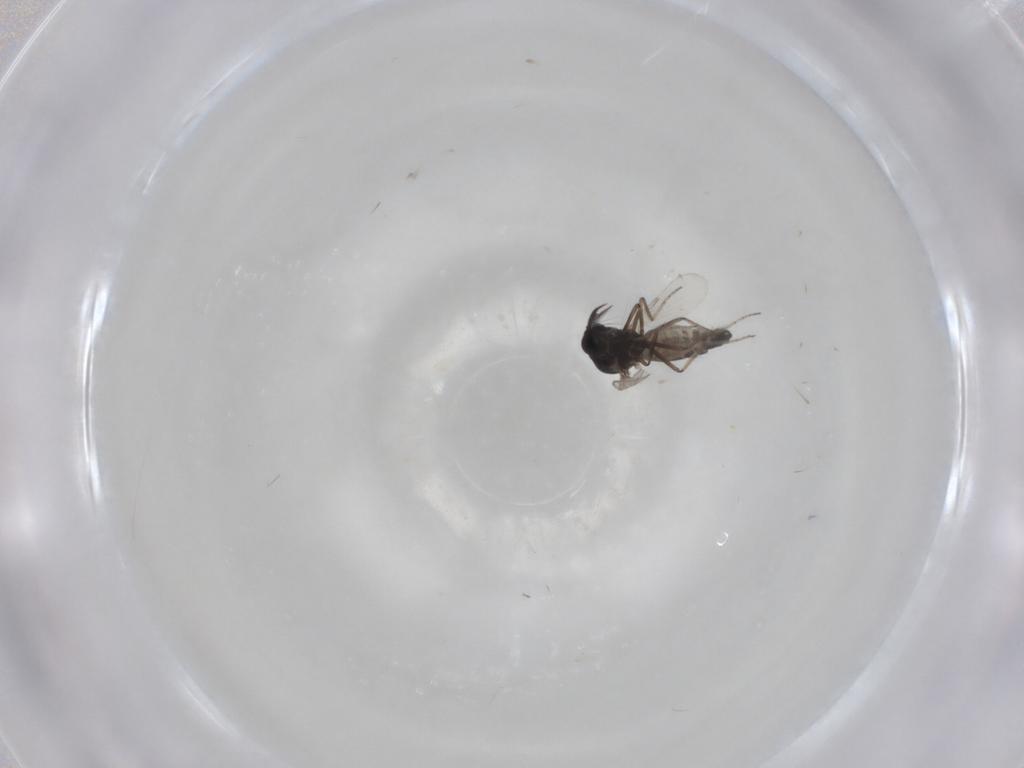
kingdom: Animalia
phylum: Arthropoda
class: Insecta
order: Diptera
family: Ceratopogonidae
